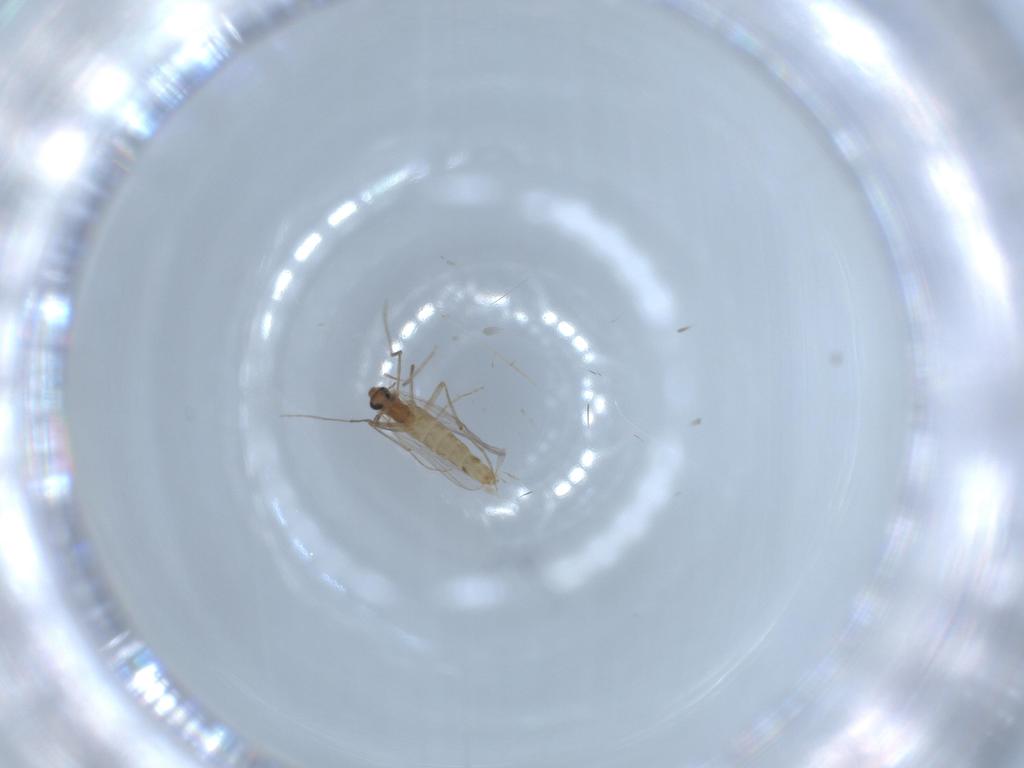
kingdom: Animalia
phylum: Arthropoda
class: Insecta
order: Diptera
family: Chironomidae
